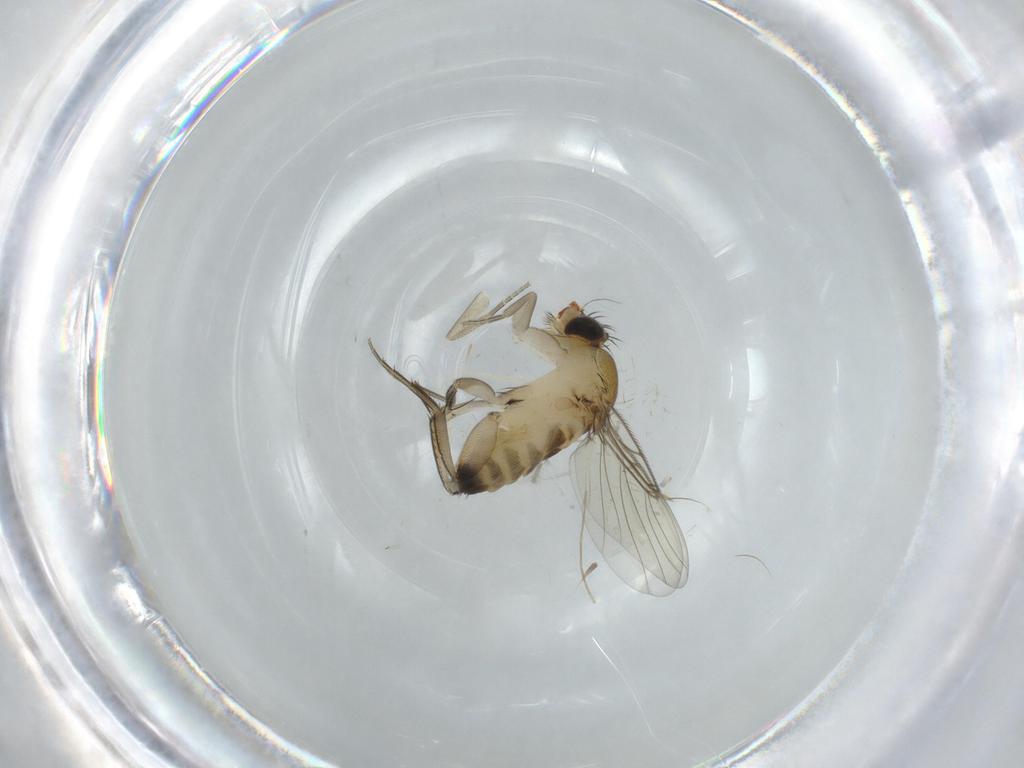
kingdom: Animalia
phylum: Arthropoda
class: Insecta
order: Diptera
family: Phoridae
